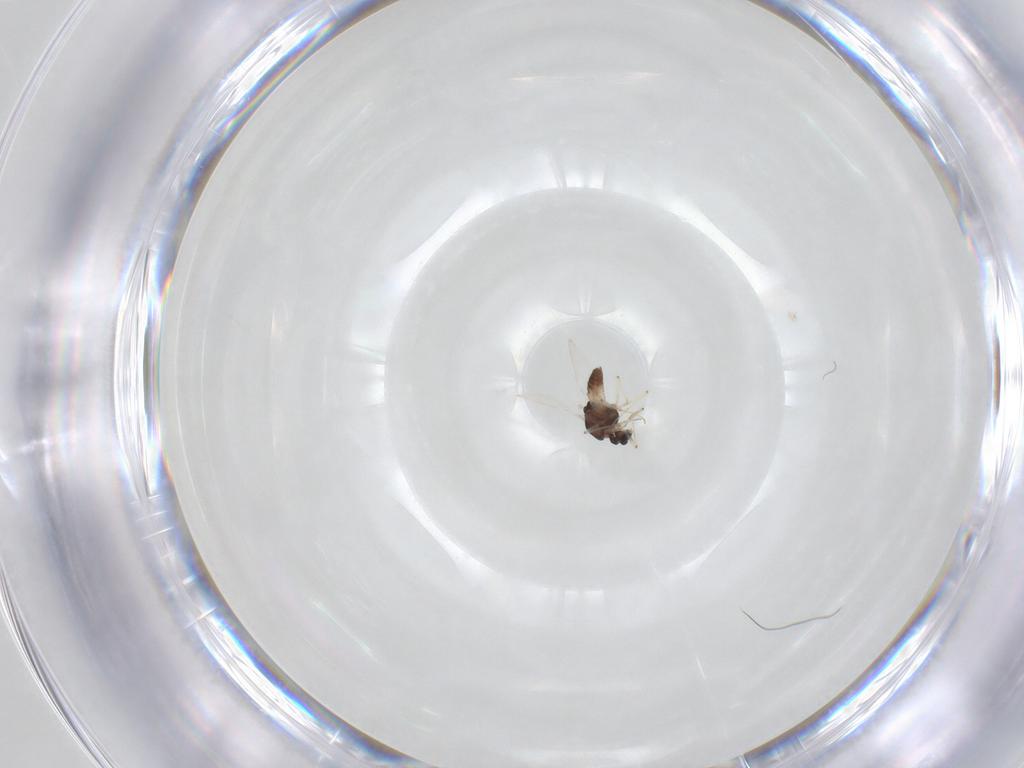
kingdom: Animalia
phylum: Arthropoda
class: Insecta
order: Diptera
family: Chironomidae
